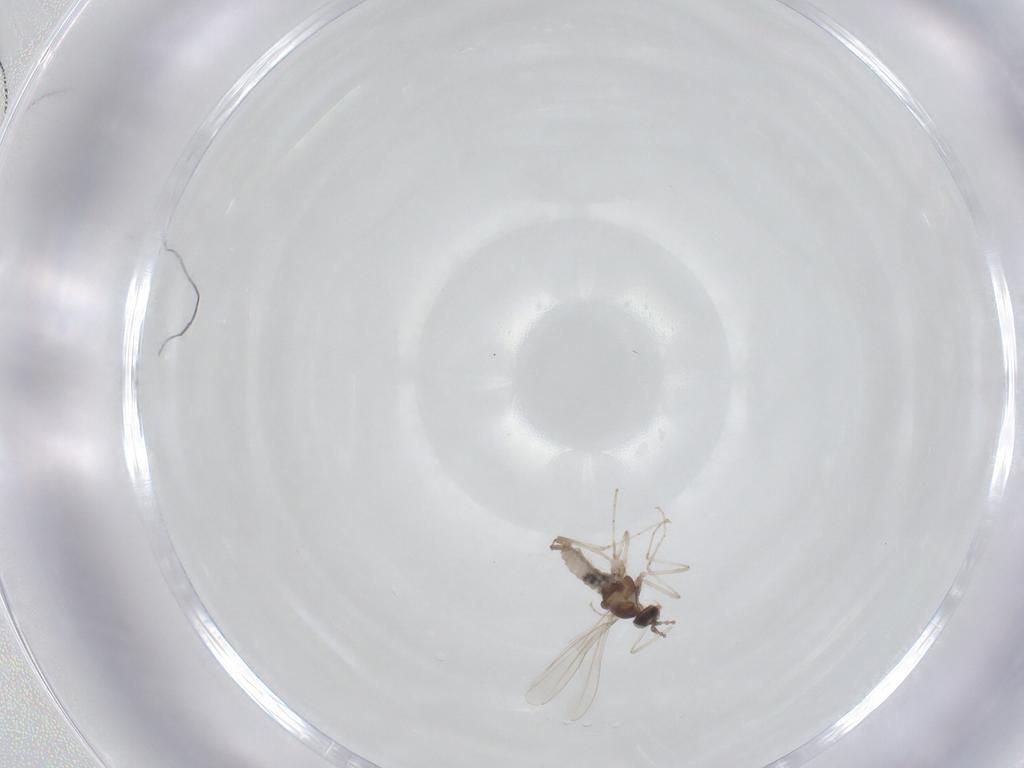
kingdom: Animalia
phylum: Arthropoda
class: Insecta
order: Diptera
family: Cecidomyiidae
